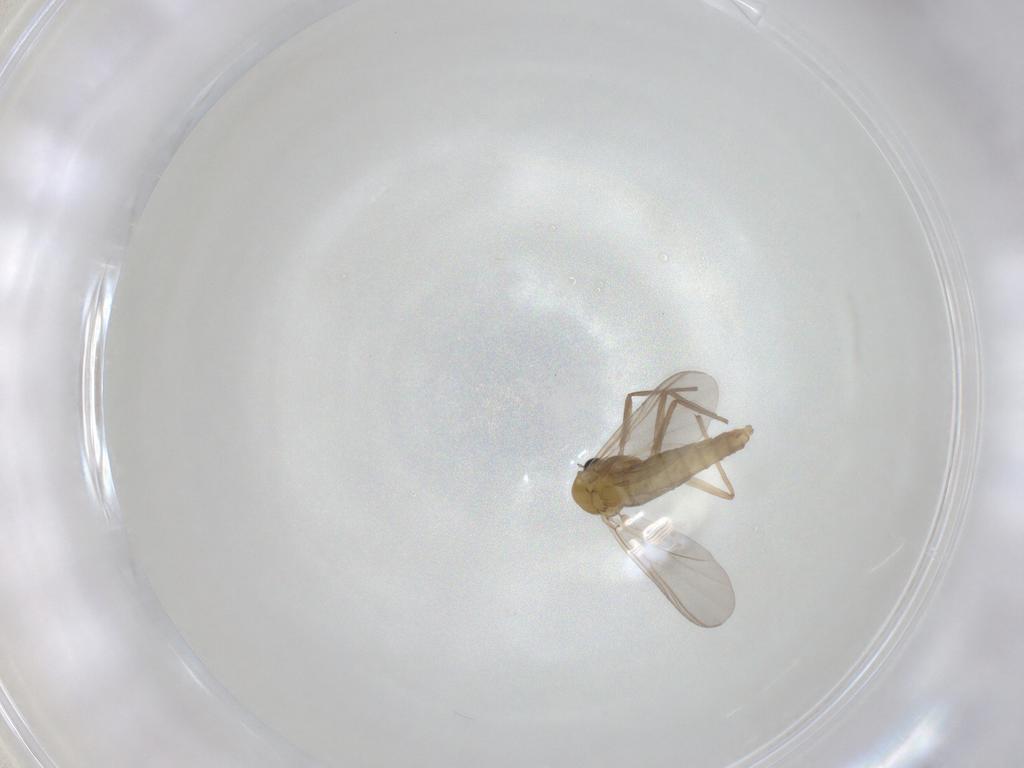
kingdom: Animalia
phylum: Arthropoda
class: Insecta
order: Diptera
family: Chironomidae
